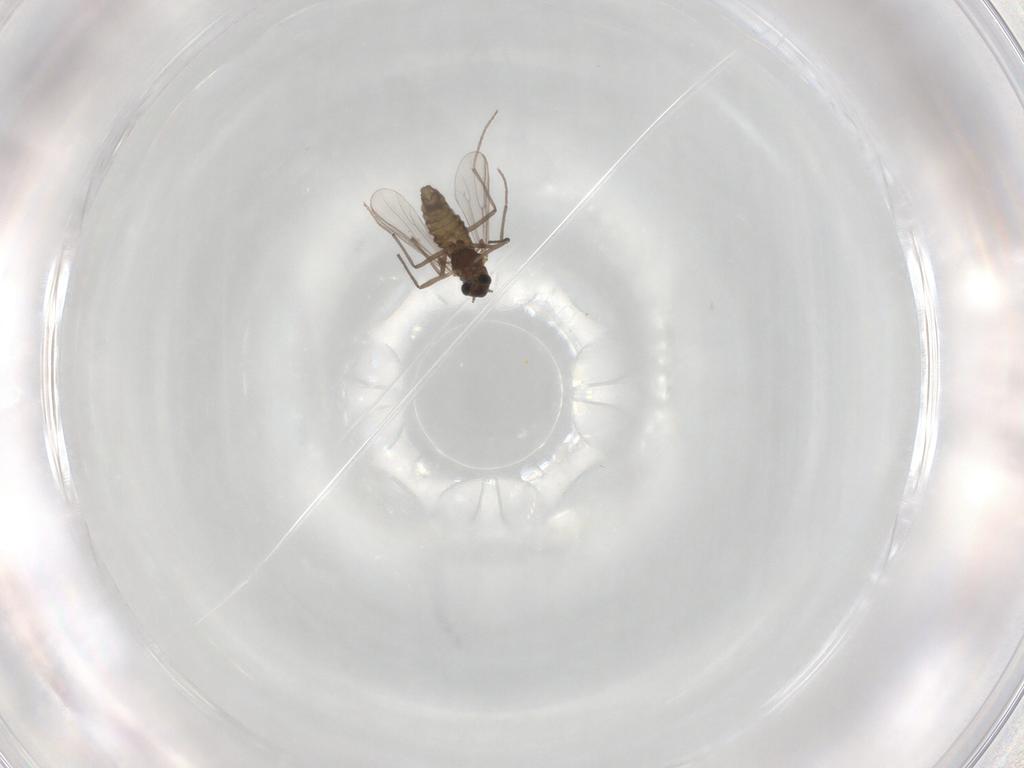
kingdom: Animalia
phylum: Arthropoda
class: Insecta
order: Diptera
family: Chironomidae
